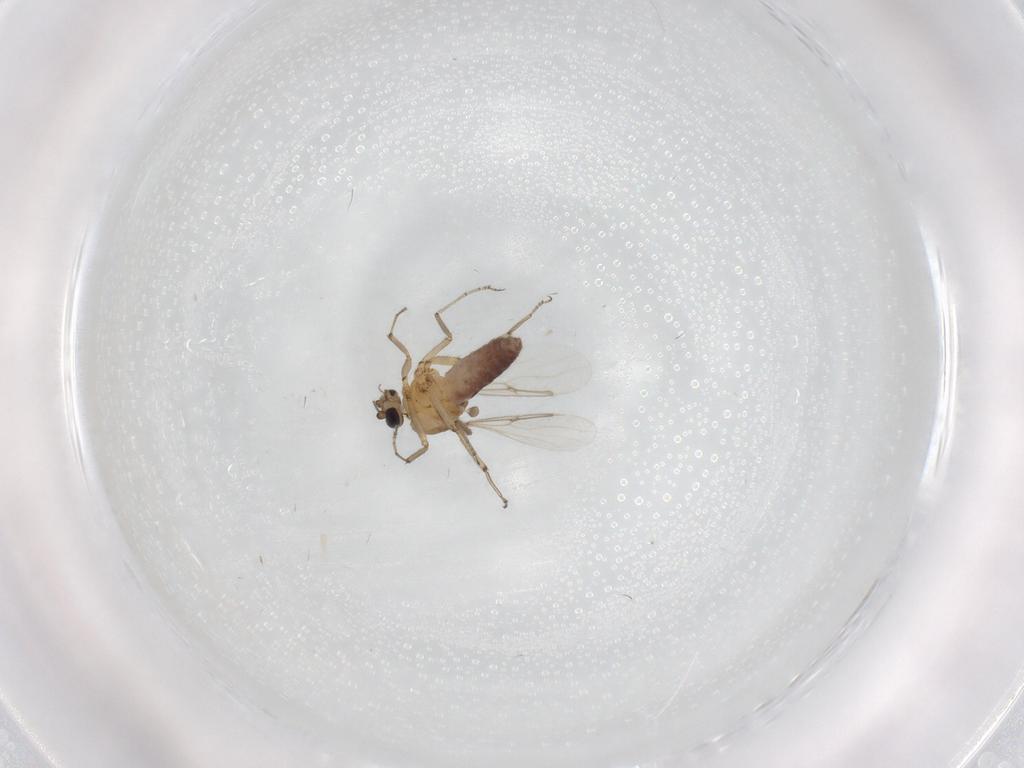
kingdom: Animalia
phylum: Arthropoda
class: Insecta
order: Diptera
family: Ceratopogonidae
